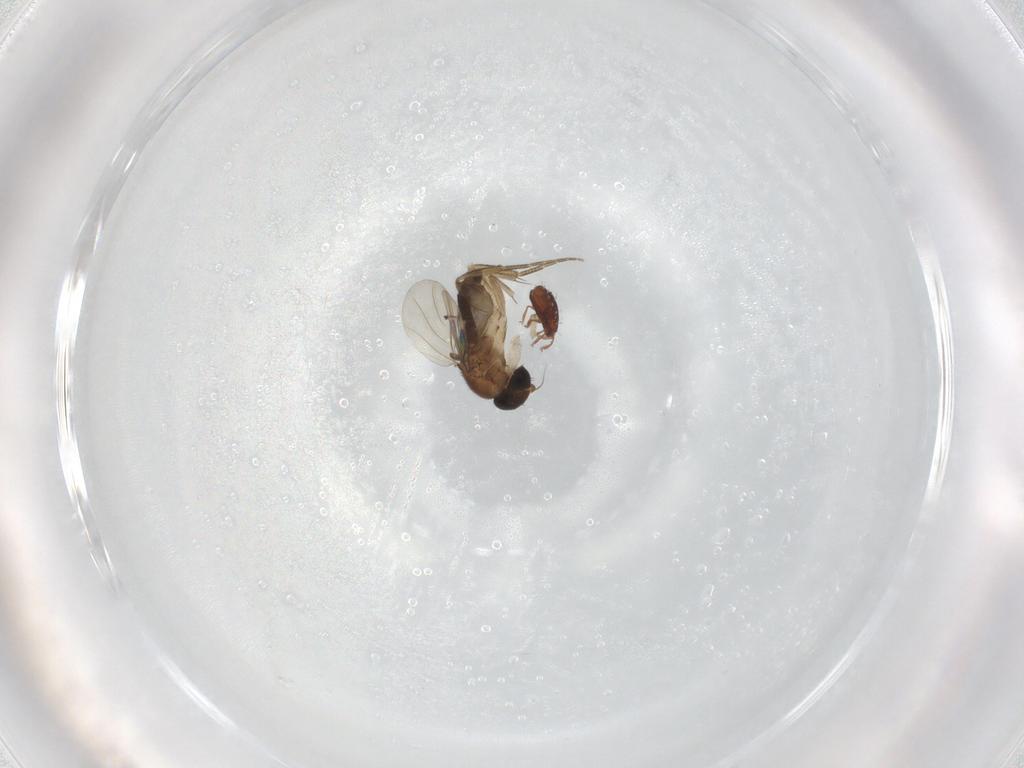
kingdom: Animalia
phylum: Arthropoda
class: Insecta
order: Diptera
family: Phoridae
